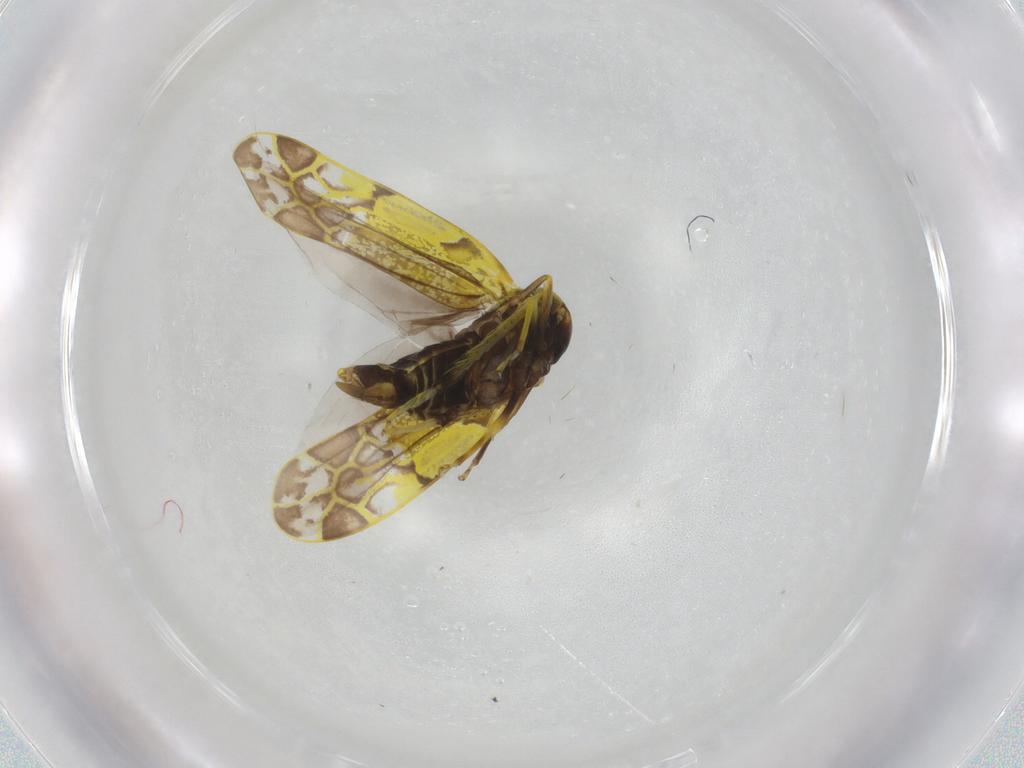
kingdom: Animalia
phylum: Arthropoda
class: Insecta
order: Hemiptera
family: Cicadellidae
